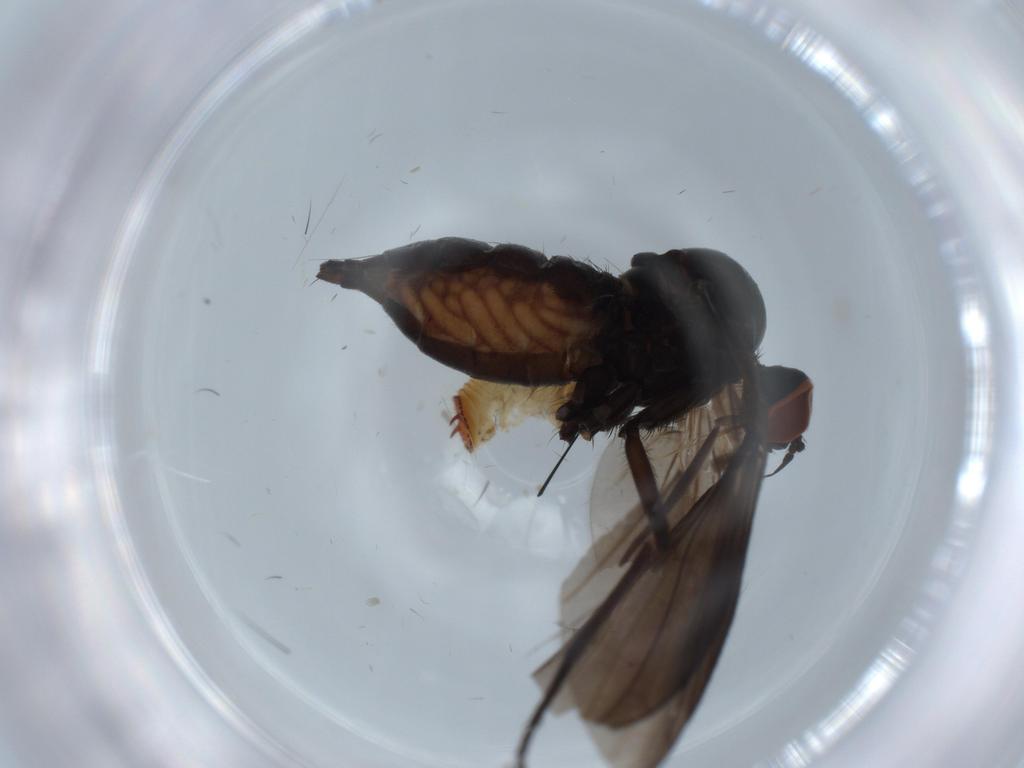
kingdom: Animalia
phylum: Arthropoda
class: Insecta
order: Diptera
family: Empididae
